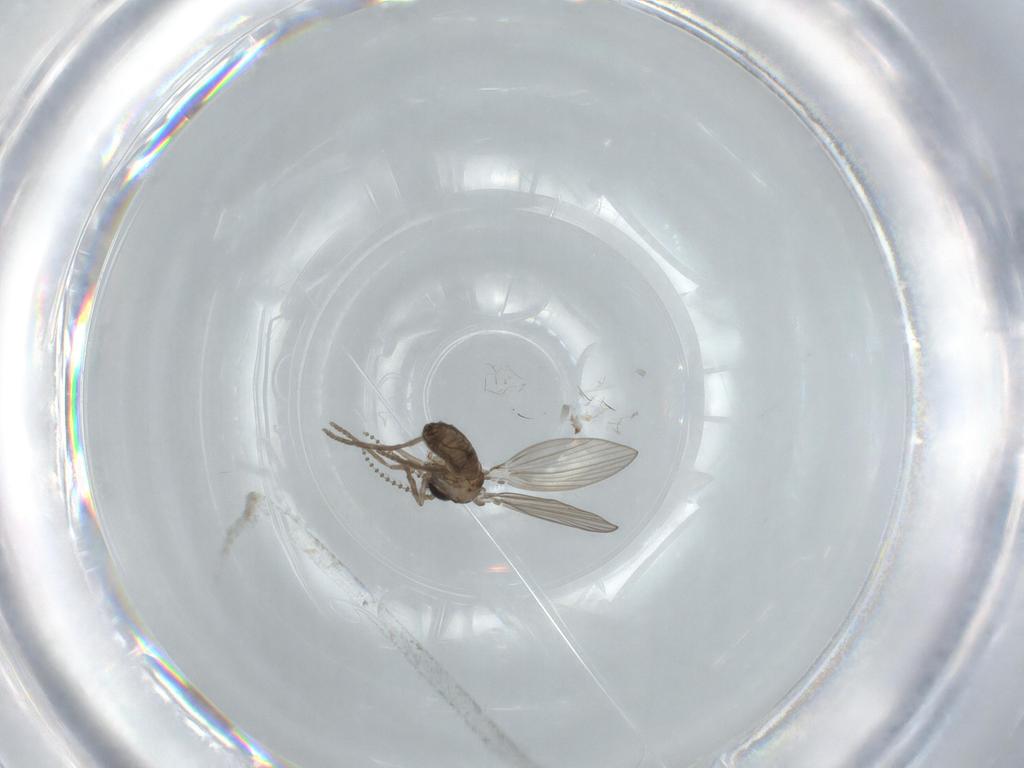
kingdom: Animalia
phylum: Arthropoda
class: Insecta
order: Diptera
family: Psychodidae
